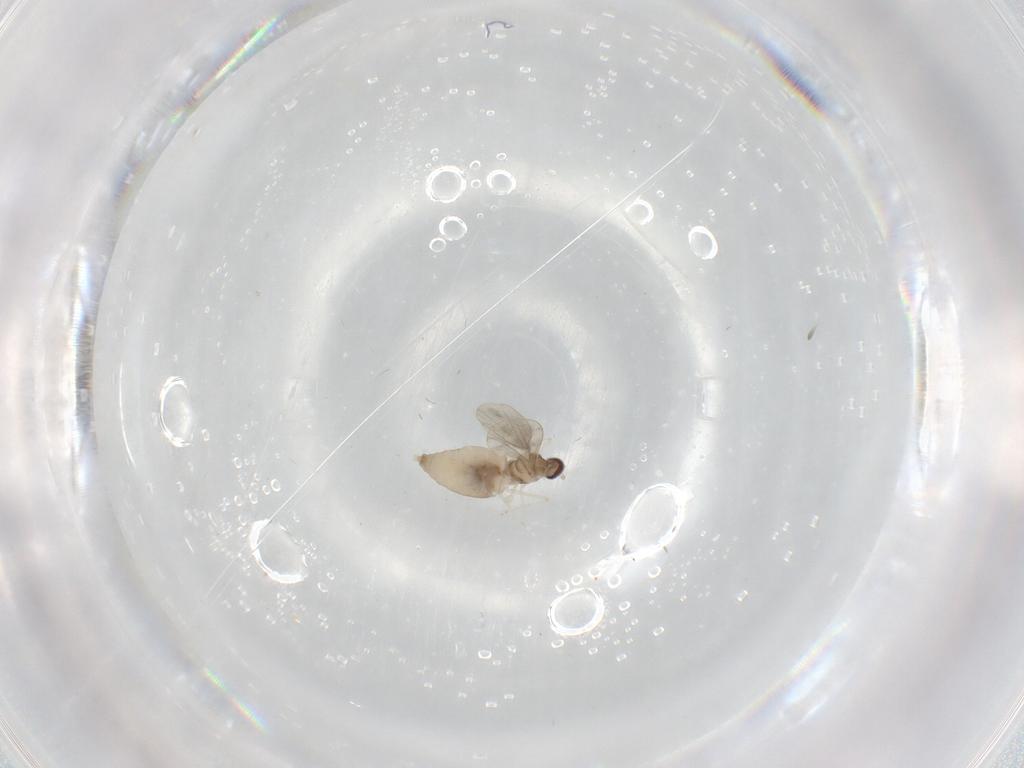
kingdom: Animalia
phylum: Arthropoda
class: Insecta
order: Diptera
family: Cecidomyiidae
